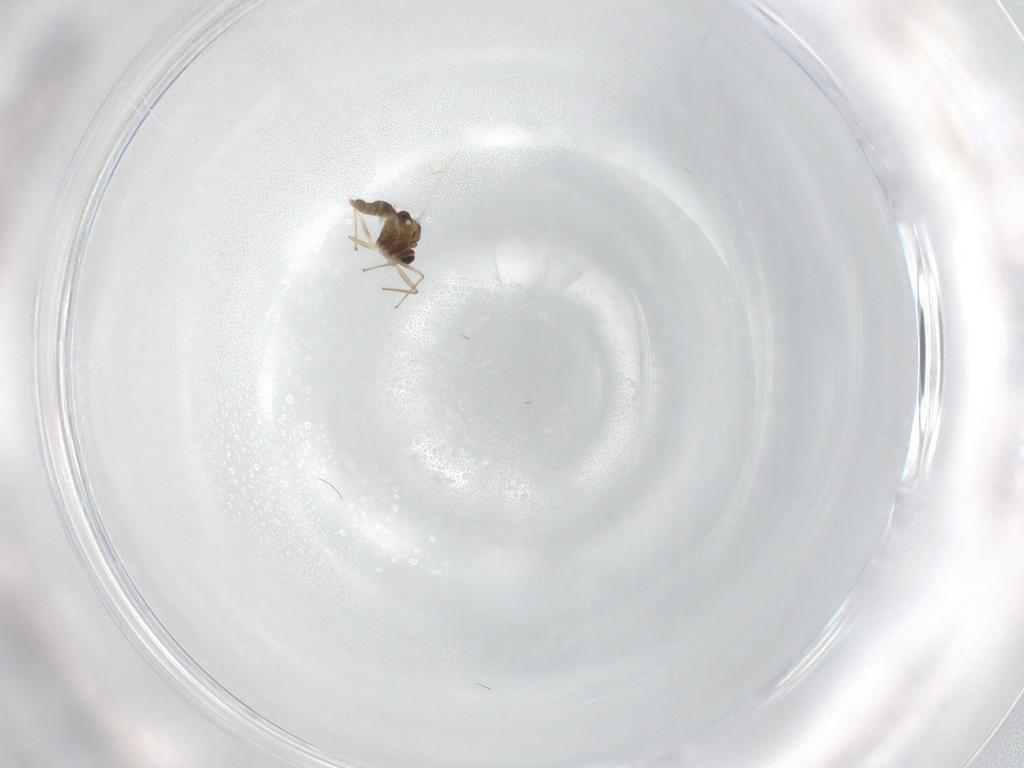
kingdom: Animalia
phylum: Arthropoda
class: Insecta
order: Diptera
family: Chironomidae
